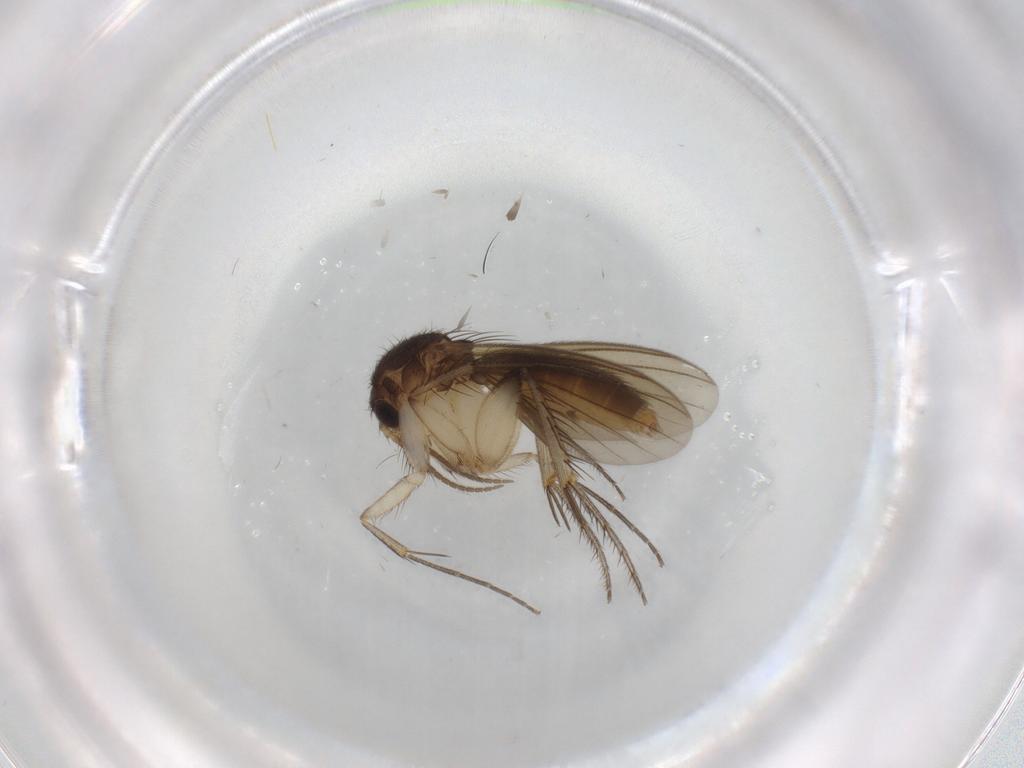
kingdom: Animalia
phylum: Arthropoda
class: Insecta
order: Diptera
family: Mycetophilidae
